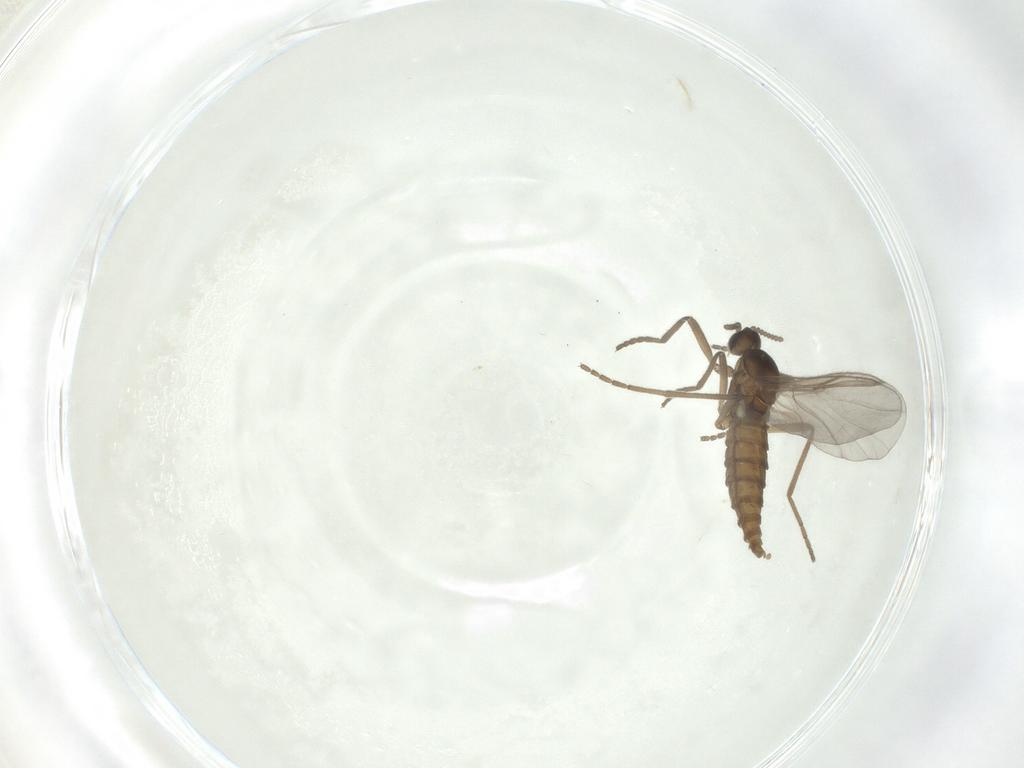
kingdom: Animalia
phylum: Arthropoda
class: Insecta
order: Diptera
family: Cecidomyiidae
